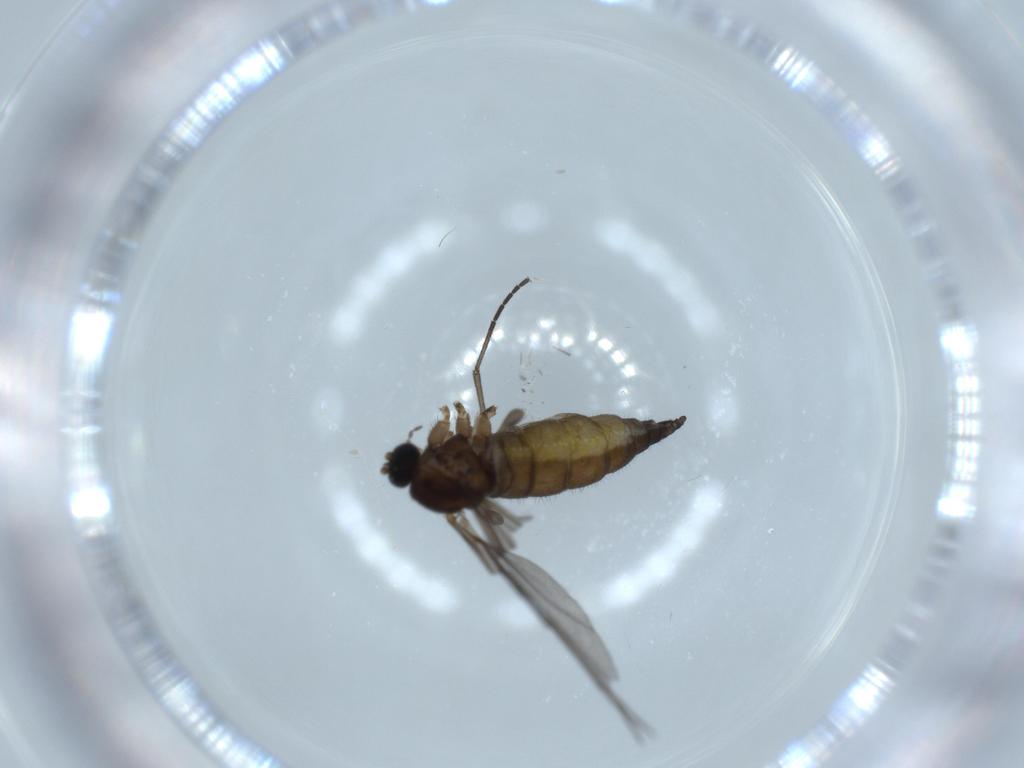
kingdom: Animalia
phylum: Arthropoda
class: Insecta
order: Diptera
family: Sciaridae
